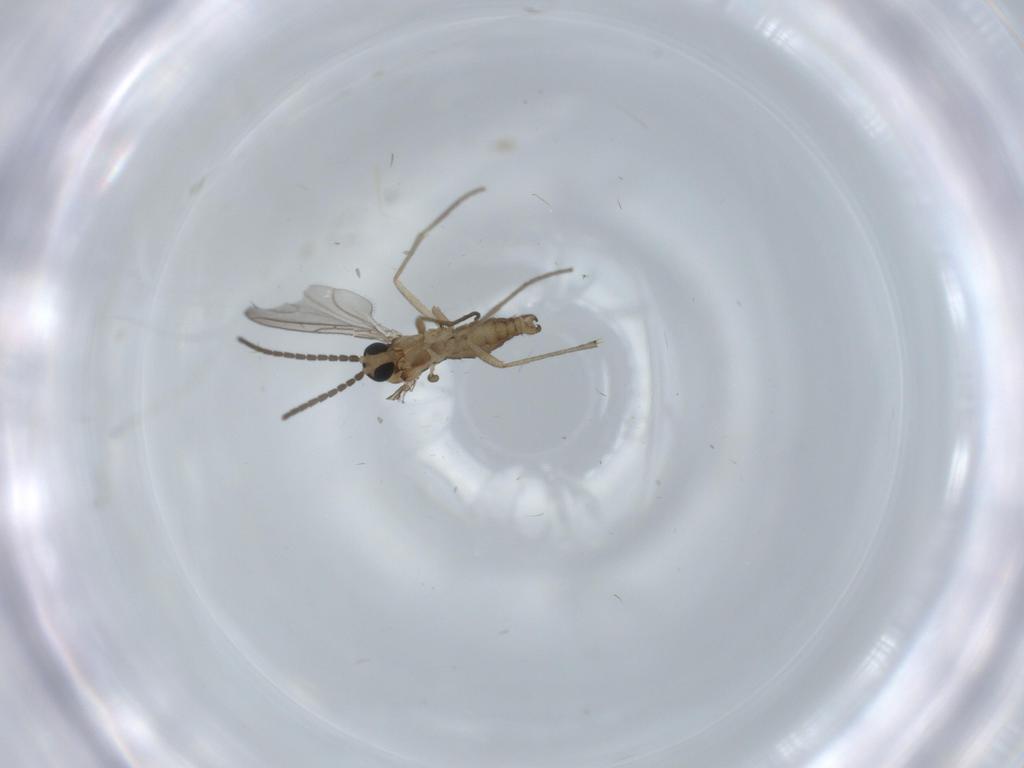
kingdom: Animalia
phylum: Arthropoda
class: Insecta
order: Diptera
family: Sciaridae
